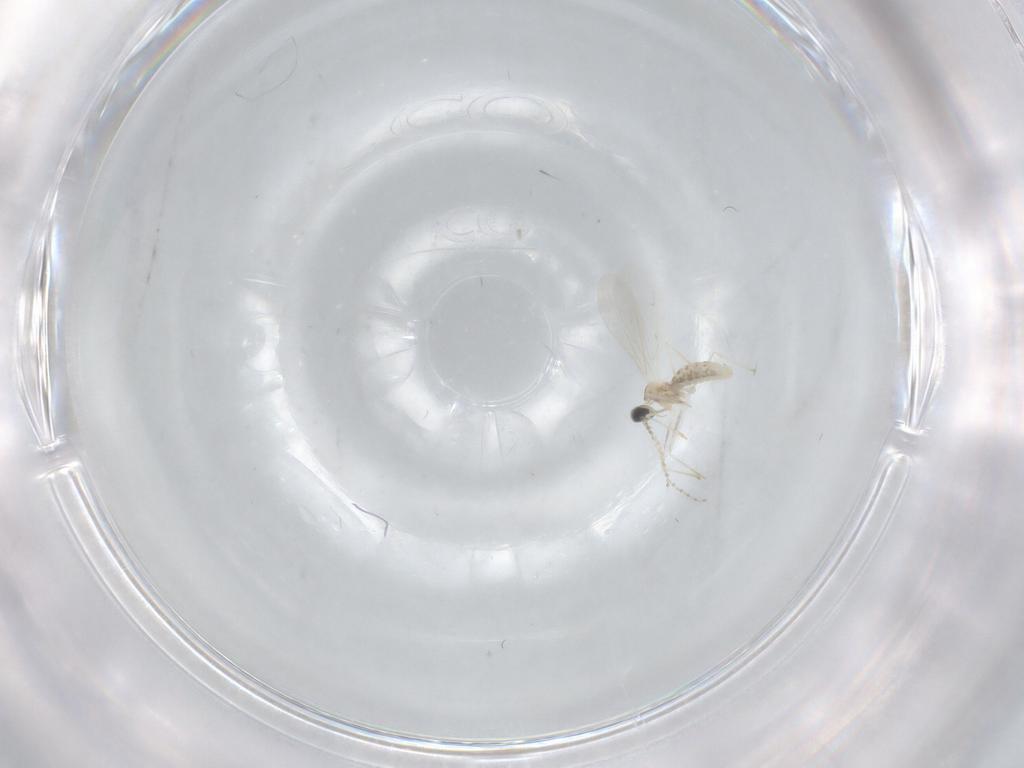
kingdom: Animalia
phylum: Arthropoda
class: Insecta
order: Diptera
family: Cecidomyiidae
